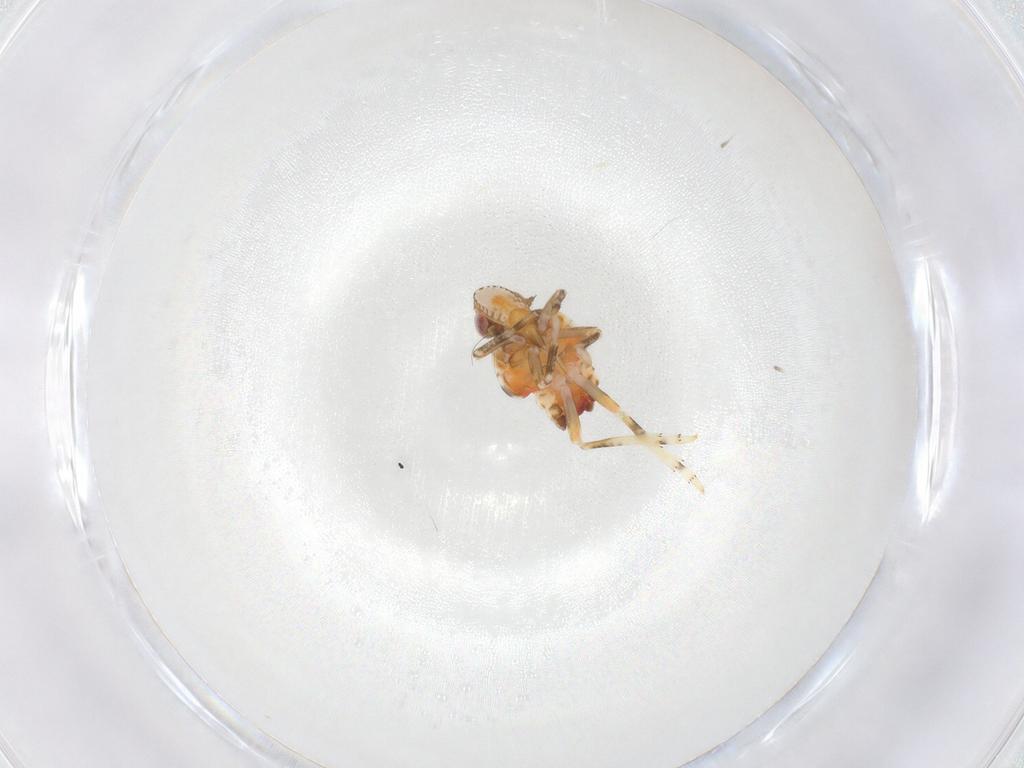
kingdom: Animalia
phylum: Arthropoda
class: Insecta
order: Hemiptera
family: Tropiduchidae
